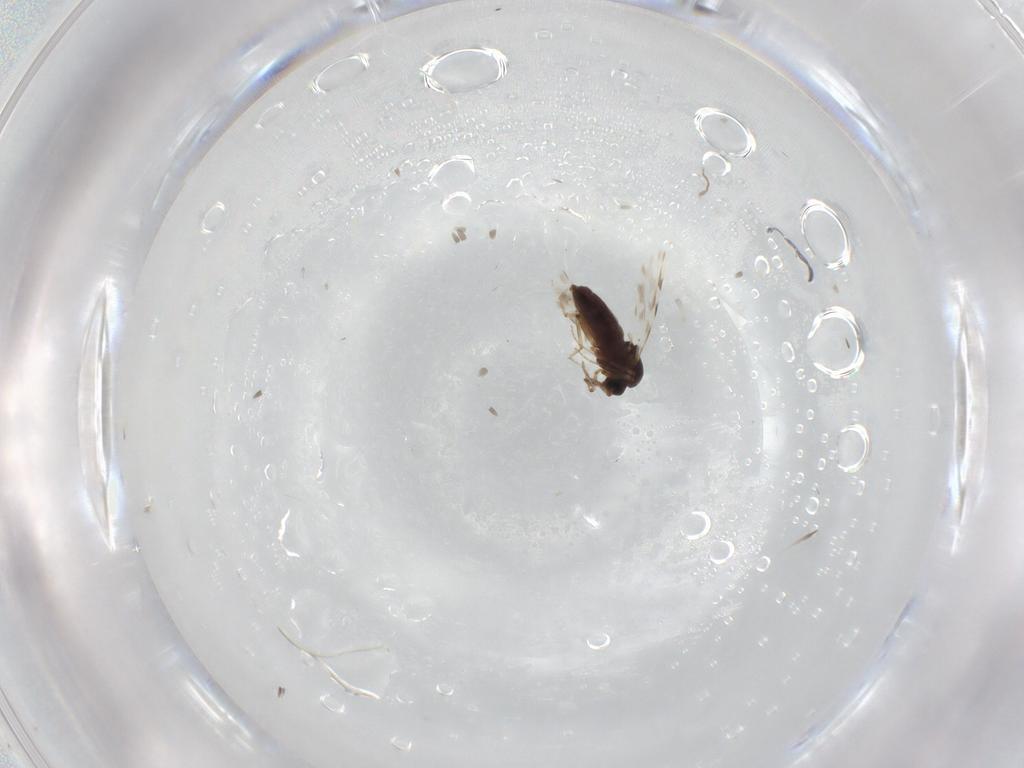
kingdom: Animalia
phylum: Arthropoda
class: Insecta
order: Diptera
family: Ceratopogonidae
